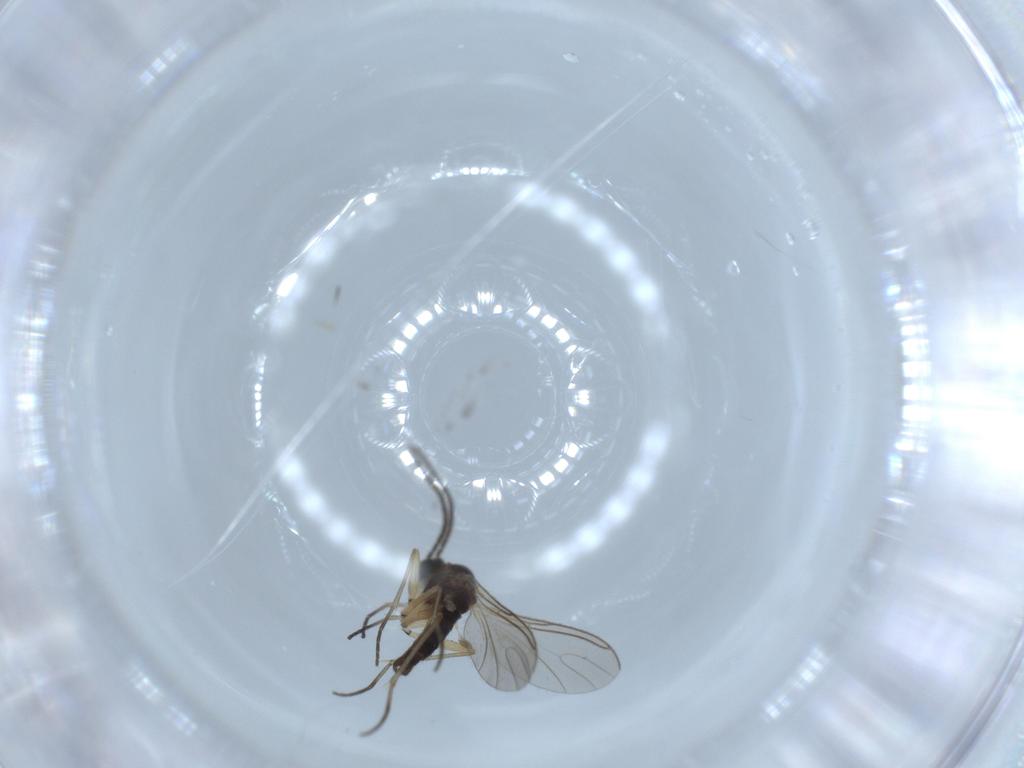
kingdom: Animalia
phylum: Arthropoda
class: Insecta
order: Diptera
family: Sciaridae
